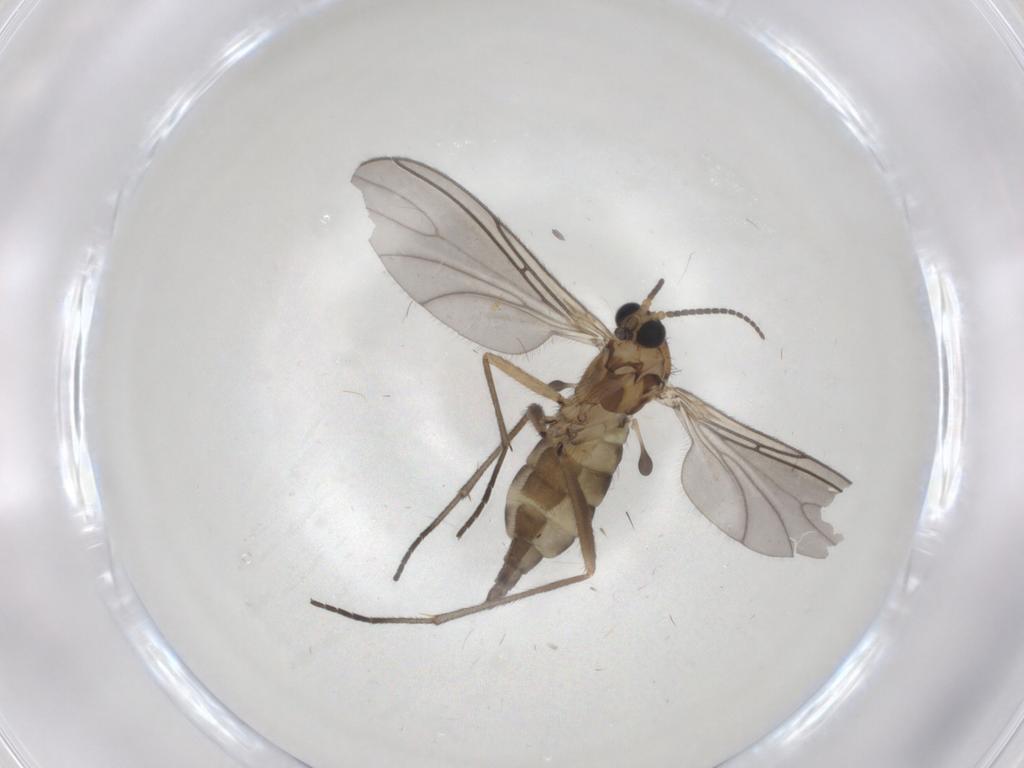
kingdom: Animalia
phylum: Arthropoda
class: Insecta
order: Diptera
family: Sciaridae
